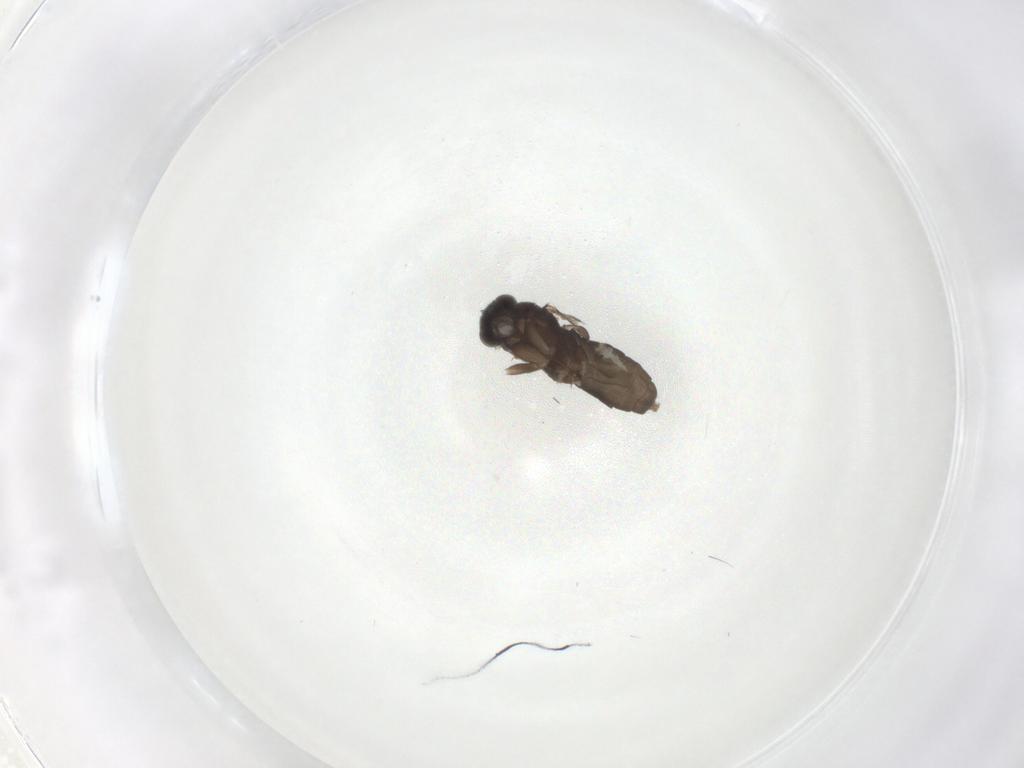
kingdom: Animalia
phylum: Arthropoda
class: Insecta
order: Diptera
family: Phoridae
